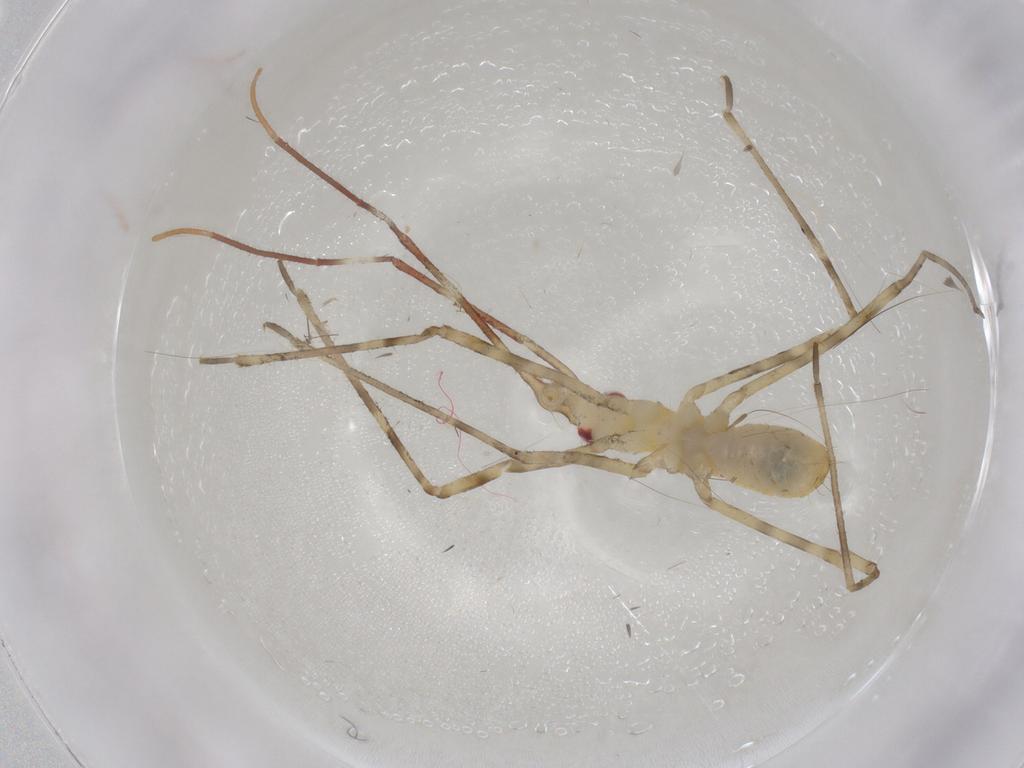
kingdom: Animalia
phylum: Arthropoda
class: Insecta
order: Hemiptera
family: Reduviidae
